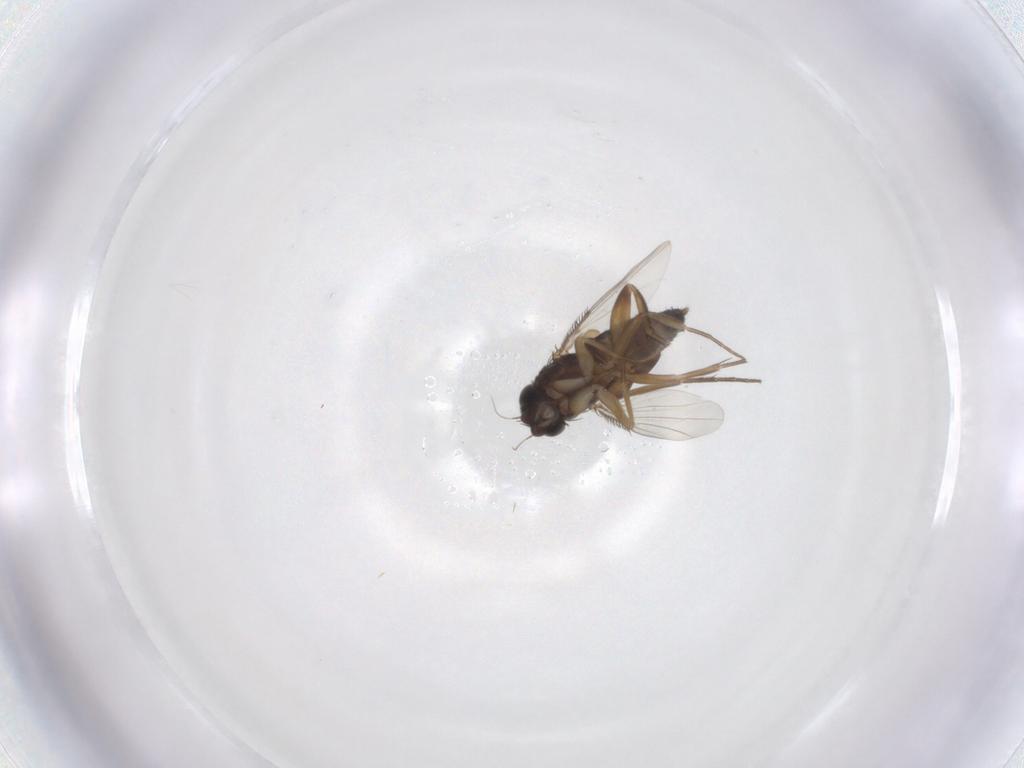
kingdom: Animalia
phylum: Arthropoda
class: Insecta
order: Diptera
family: Phoridae
